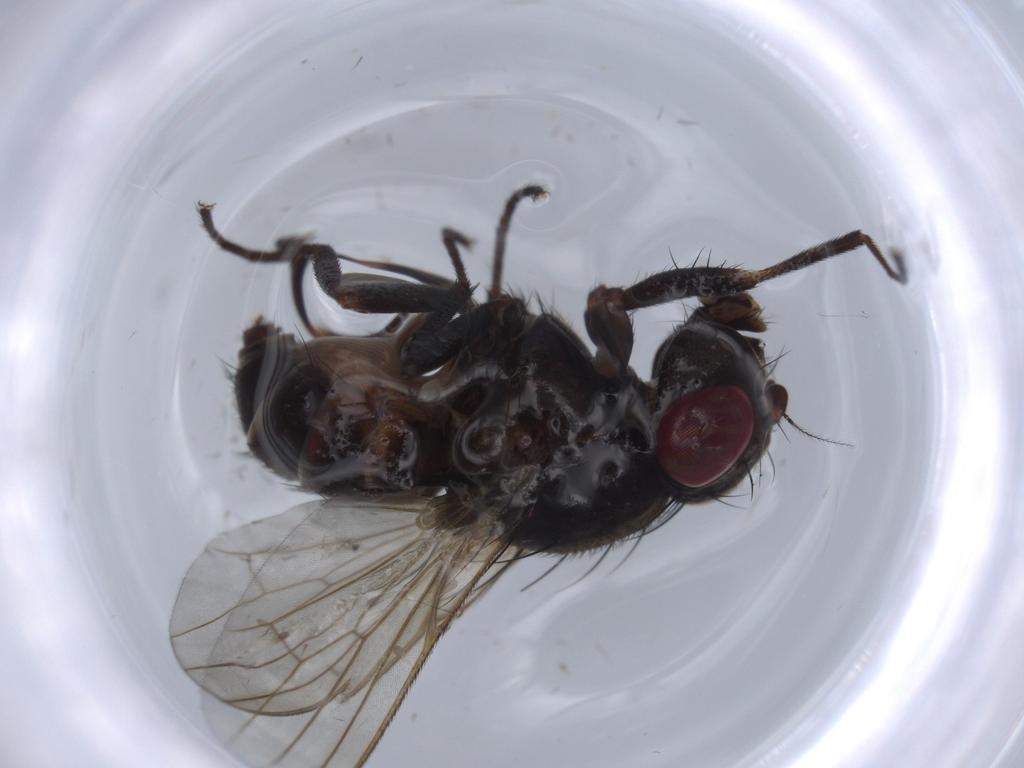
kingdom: Animalia
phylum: Arthropoda
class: Insecta
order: Diptera
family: Odiniidae
